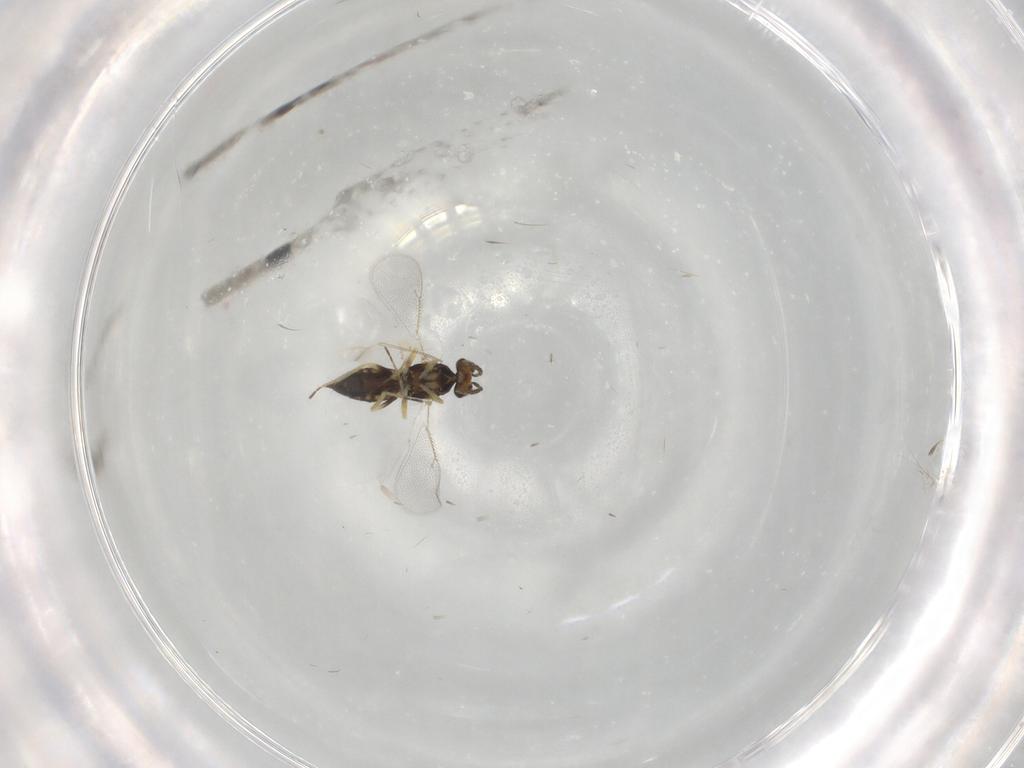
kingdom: Animalia
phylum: Arthropoda
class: Insecta
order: Hymenoptera
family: Eulophidae
